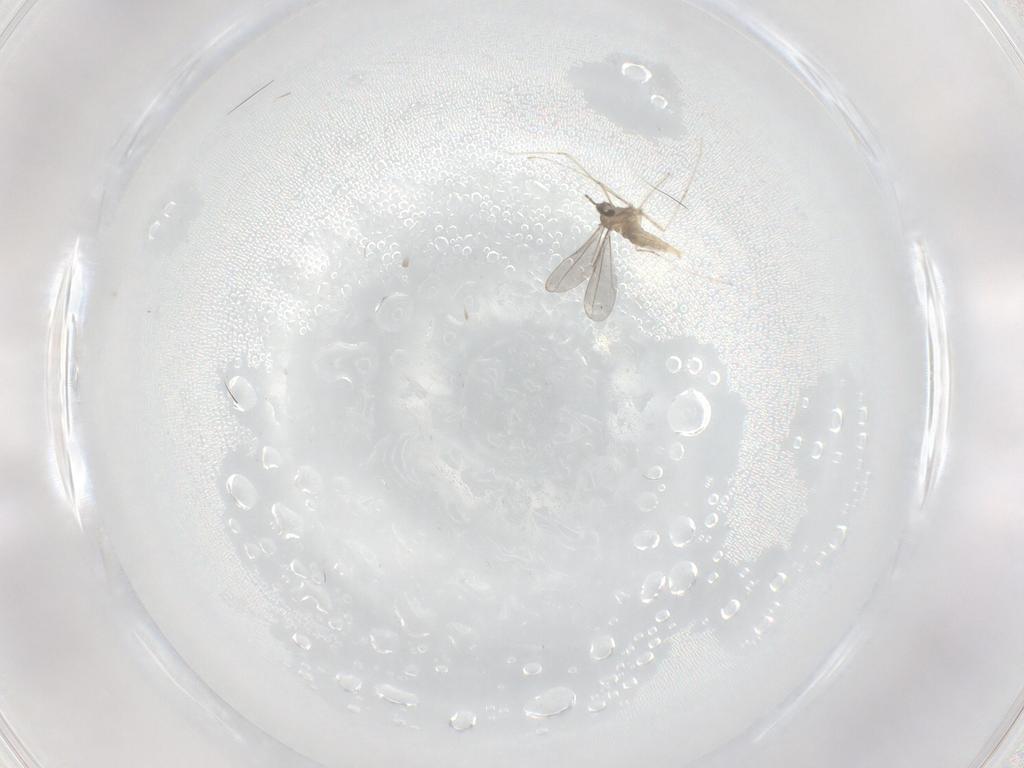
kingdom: Animalia
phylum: Arthropoda
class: Insecta
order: Diptera
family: Cecidomyiidae
